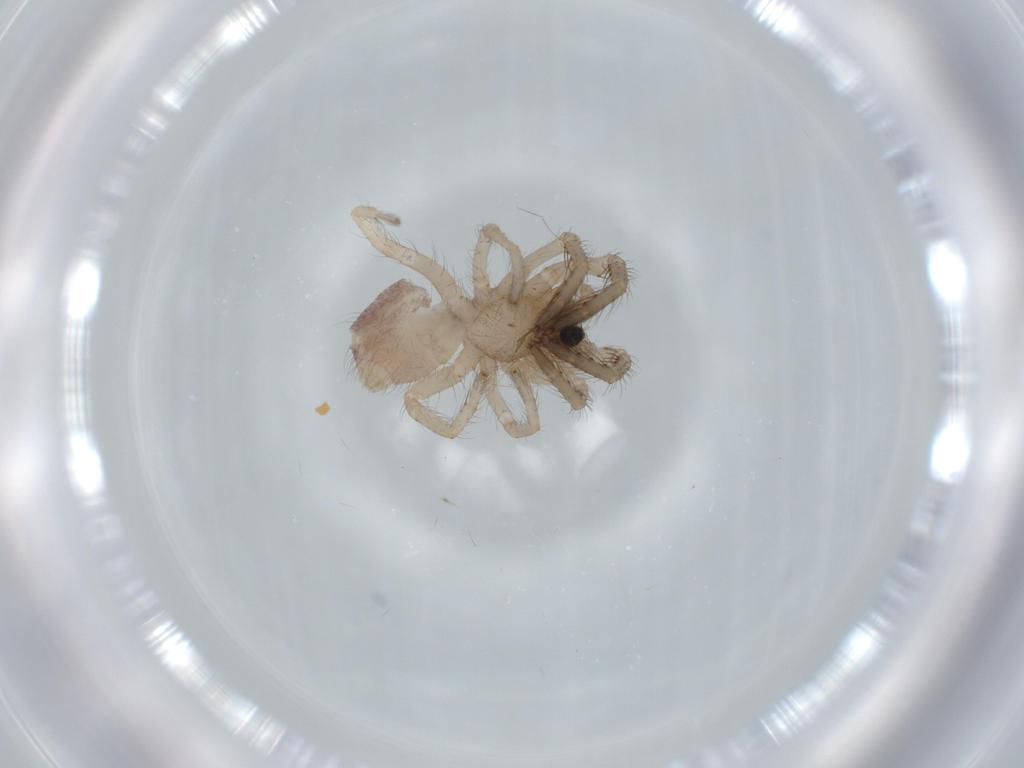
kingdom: Animalia
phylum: Arthropoda
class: Arachnida
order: Araneae
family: Segestriidae
